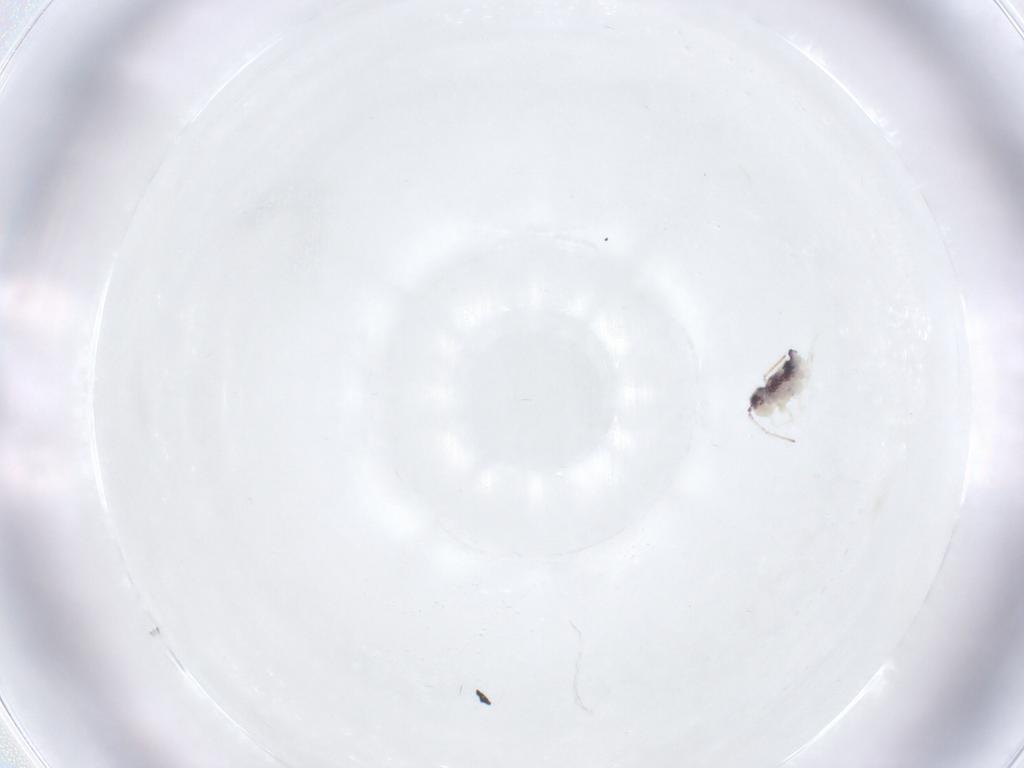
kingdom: Animalia
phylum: Arthropoda
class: Collembola
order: Symphypleona
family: Bourletiellidae
